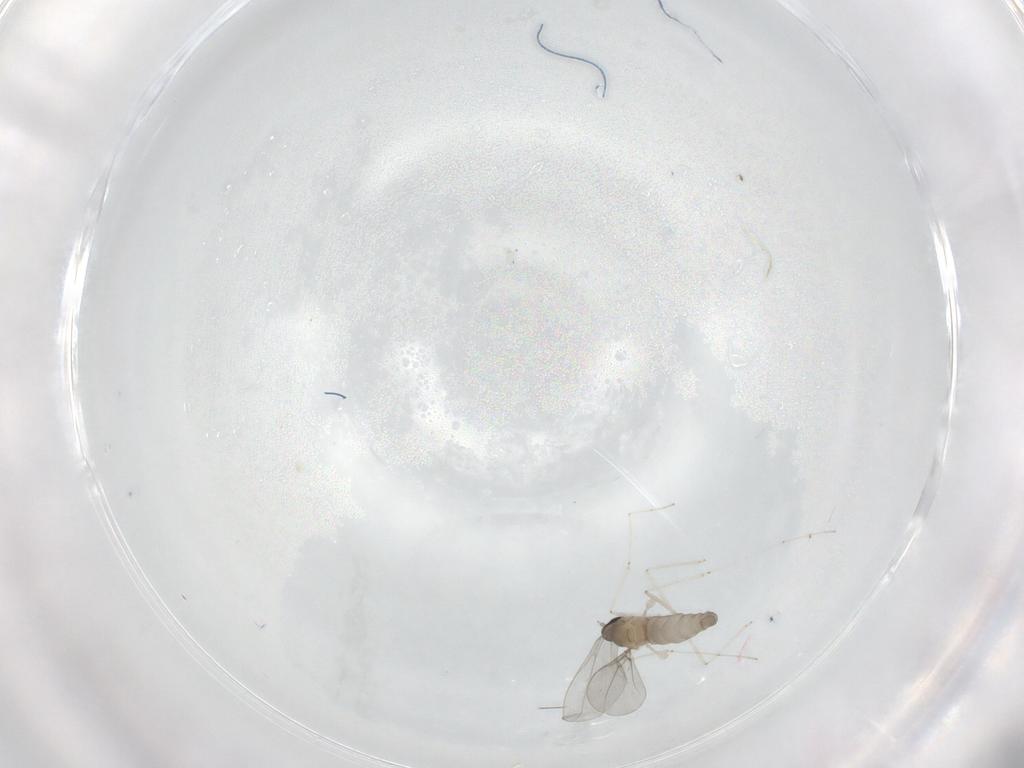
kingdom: Animalia
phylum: Arthropoda
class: Insecta
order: Diptera
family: Cecidomyiidae
